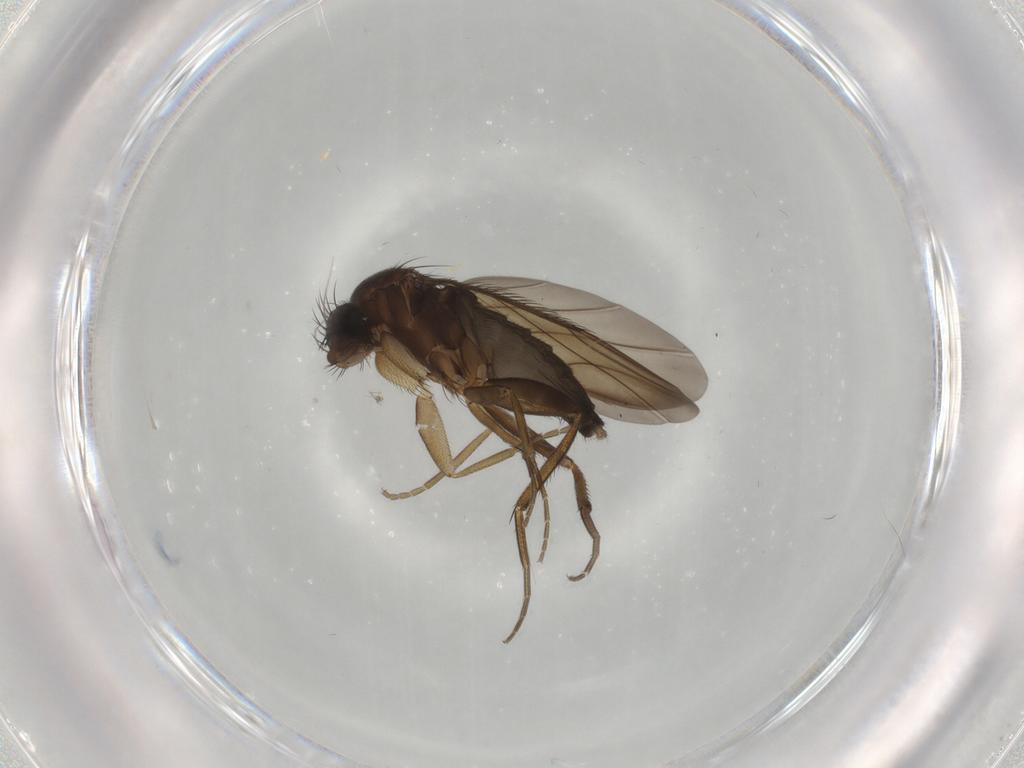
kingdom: Animalia
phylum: Arthropoda
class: Insecta
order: Diptera
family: Phoridae
